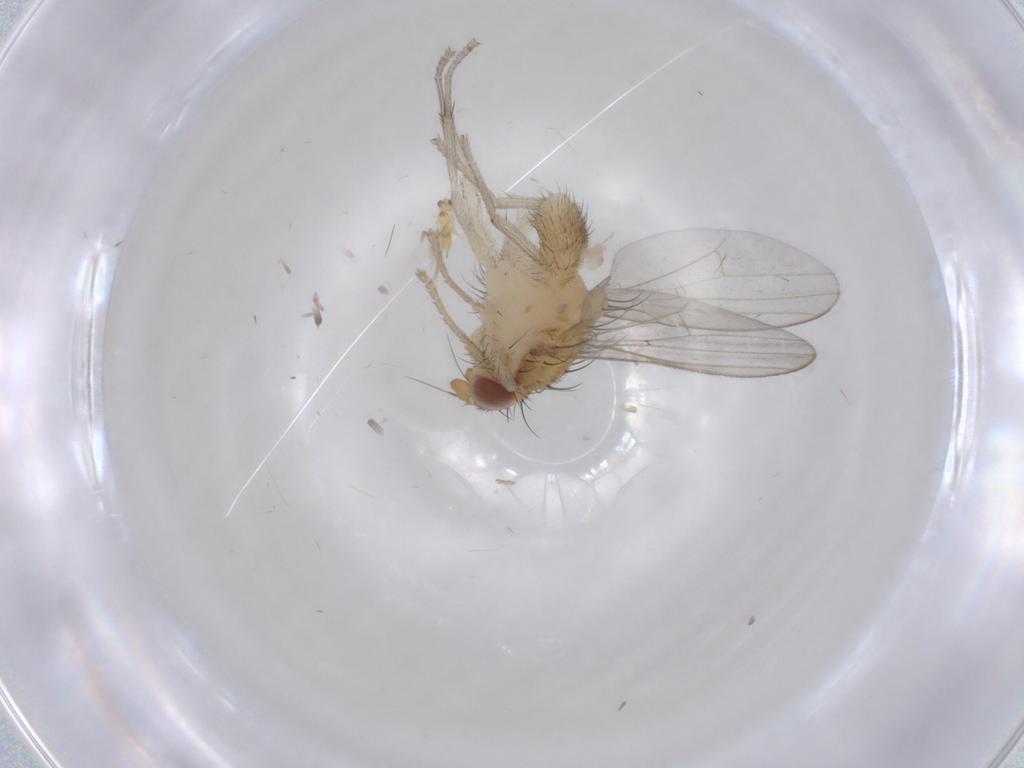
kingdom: Animalia
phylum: Arthropoda
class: Insecta
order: Diptera
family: Lauxaniidae
